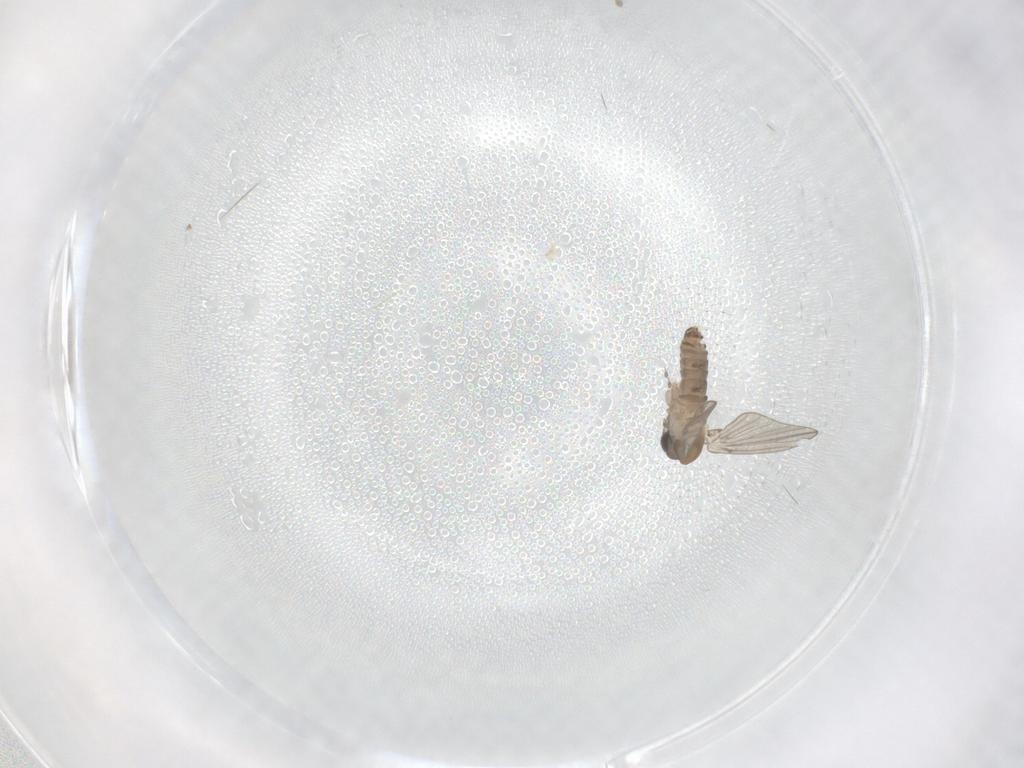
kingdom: Animalia
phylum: Arthropoda
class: Insecta
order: Diptera
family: Psychodidae
